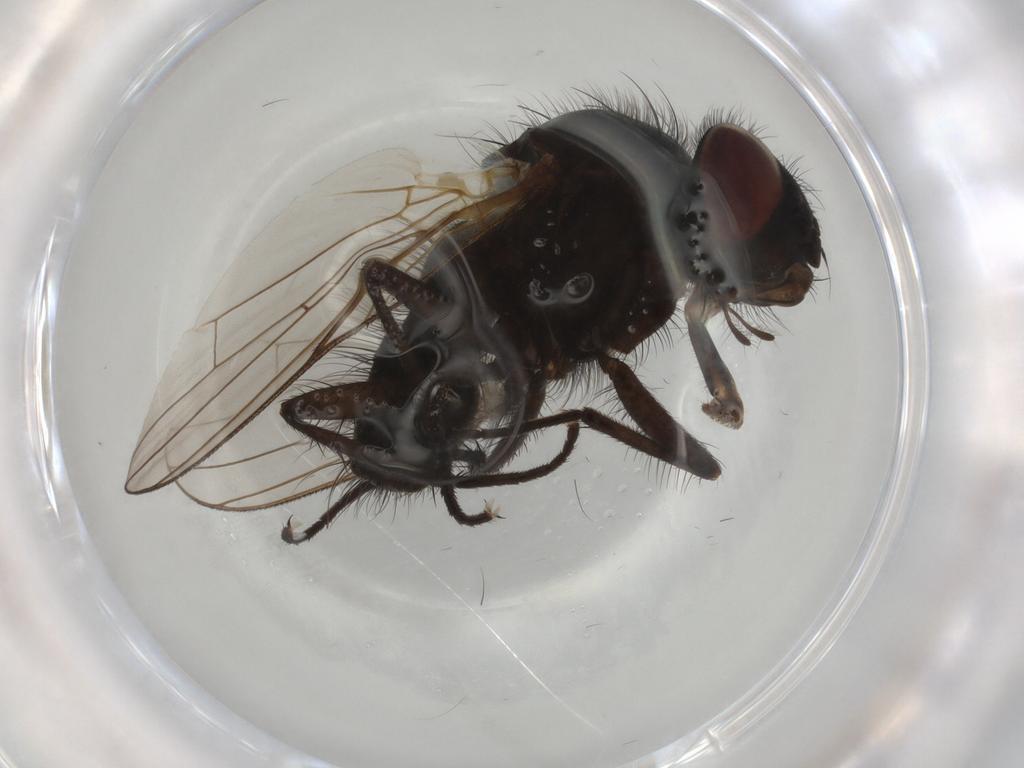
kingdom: Animalia
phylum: Arthropoda
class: Insecta
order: Diptera
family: Anthomyiidae
